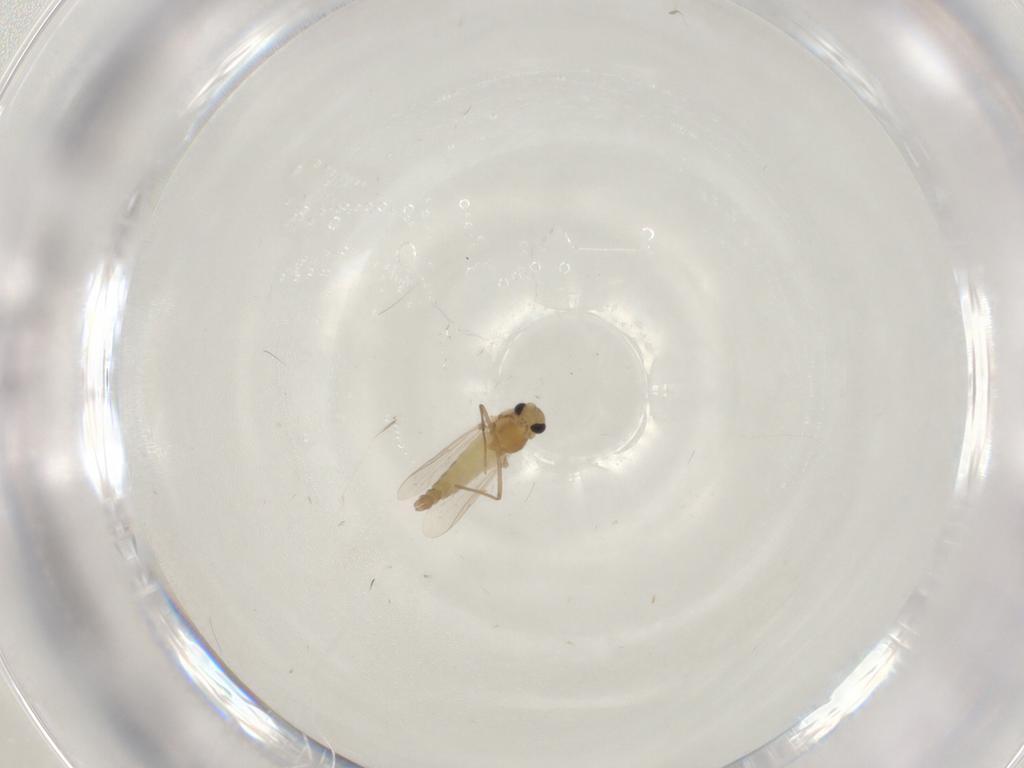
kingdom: Animalia
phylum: Arthropoda
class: Insecta
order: Diptera
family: Chironomidae
